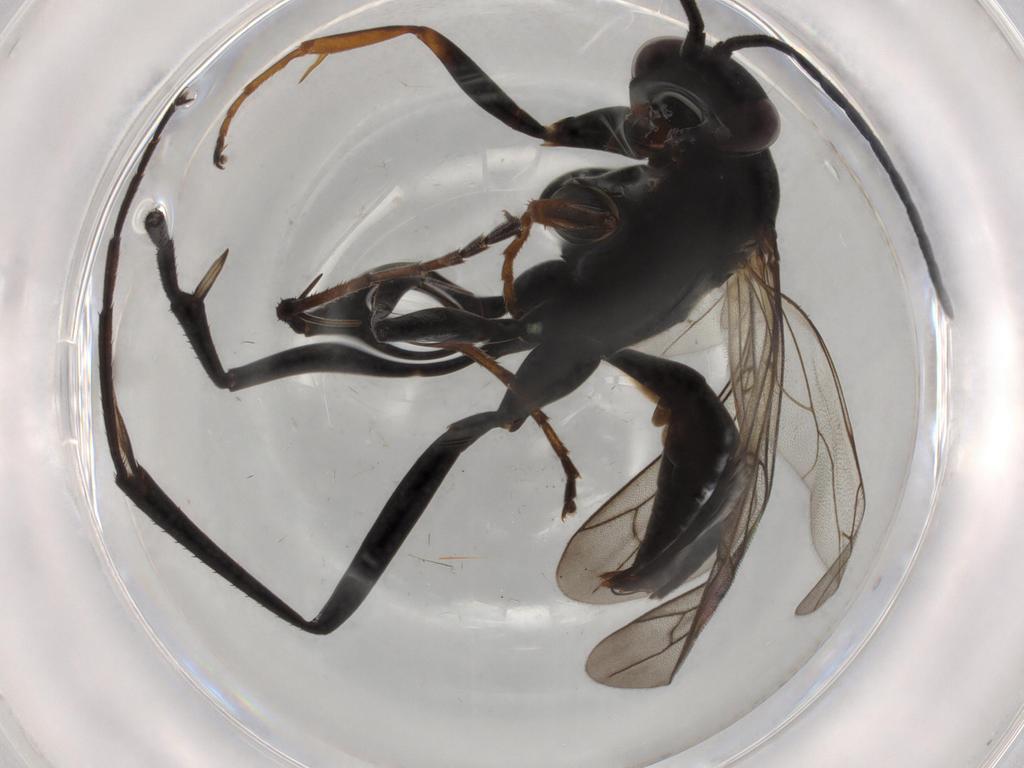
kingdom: Animalia
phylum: Arthropoda
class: Insecta
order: Hymenoptera
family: Pompilidae
